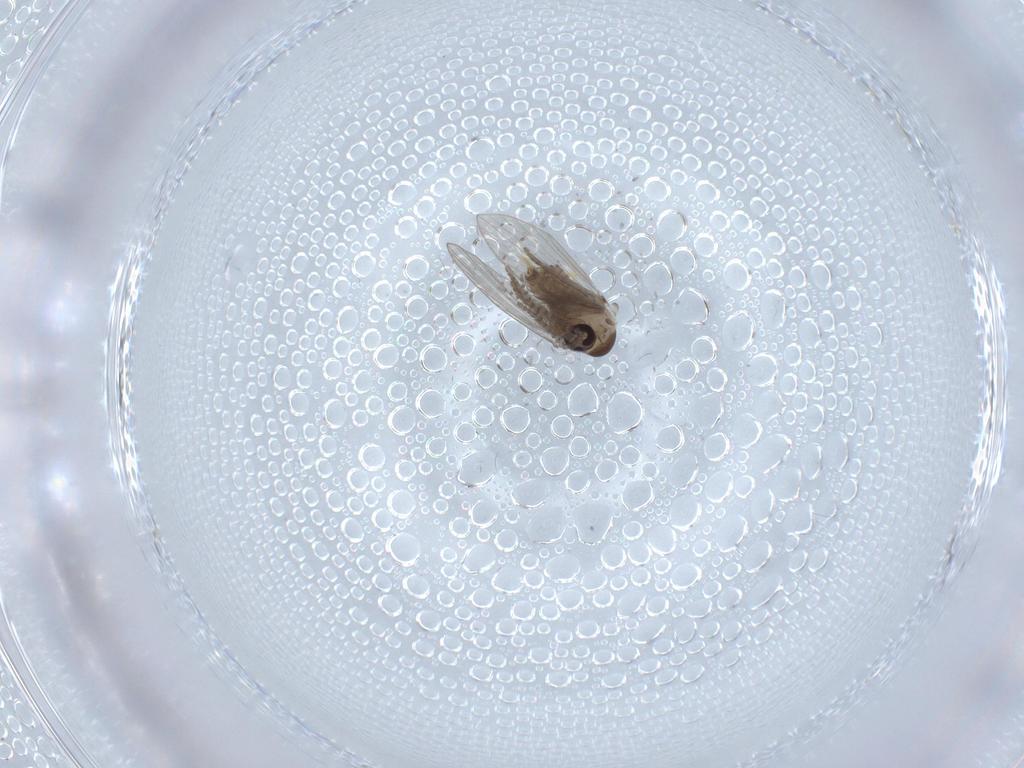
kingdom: Animalia
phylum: Arthropoda
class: Insecta
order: Diptera
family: Psychodidae
